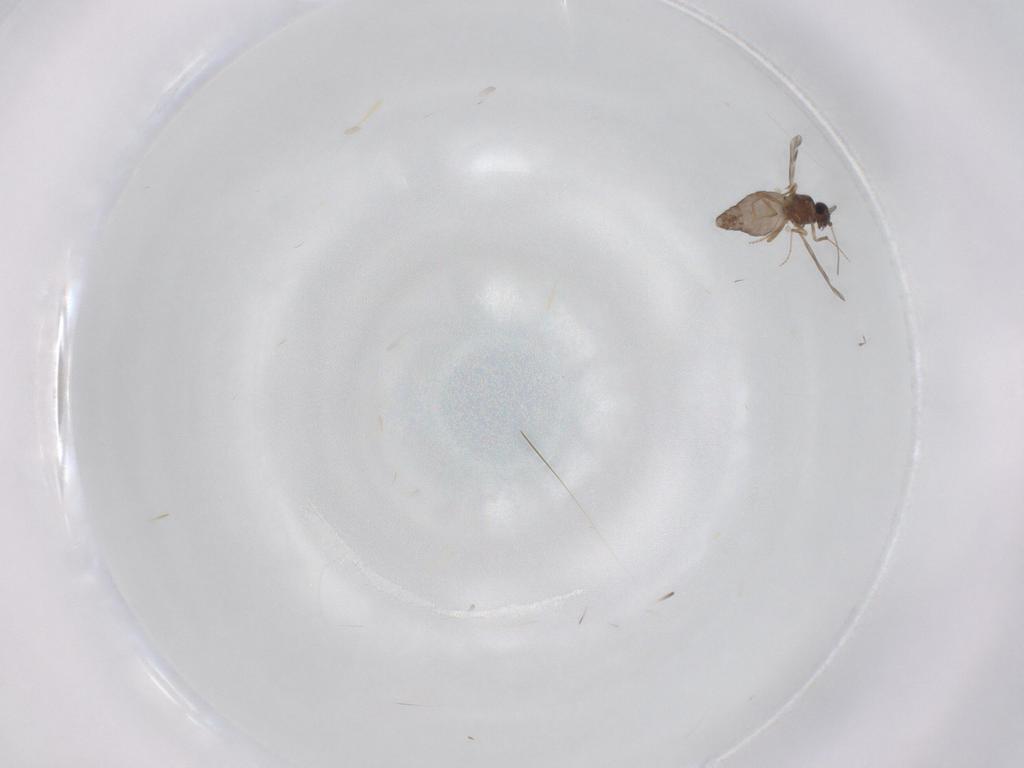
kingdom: Animalia
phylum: Arthropoda
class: Insecta
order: Diptera
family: Ceratopogonidae
